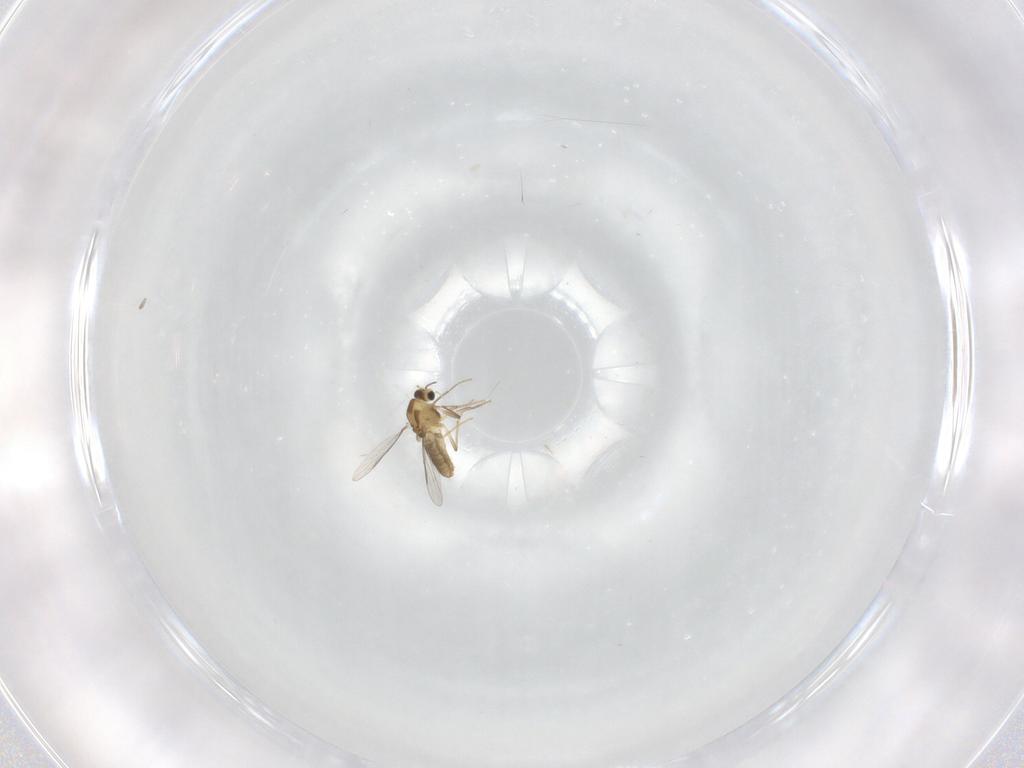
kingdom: Animalia
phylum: Arthropoda
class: Insecta
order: Diptera
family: Chironomidae
